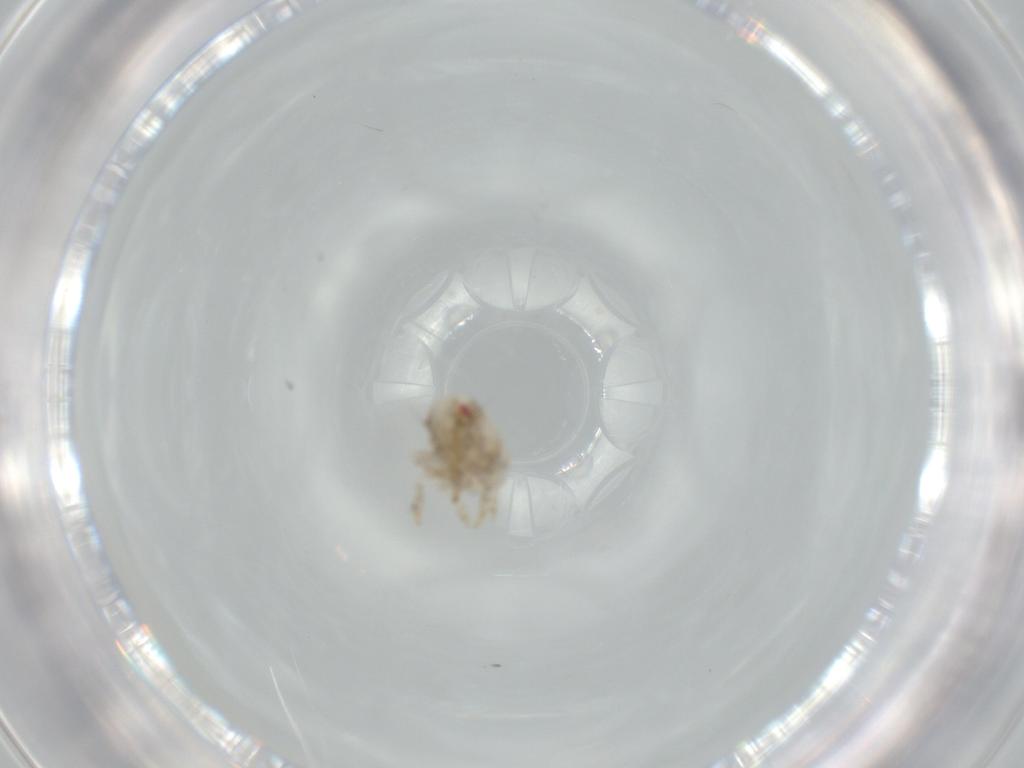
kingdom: Animalia
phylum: Arthropoda
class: Insecta
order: Hemiptera
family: Acanaloniidae
